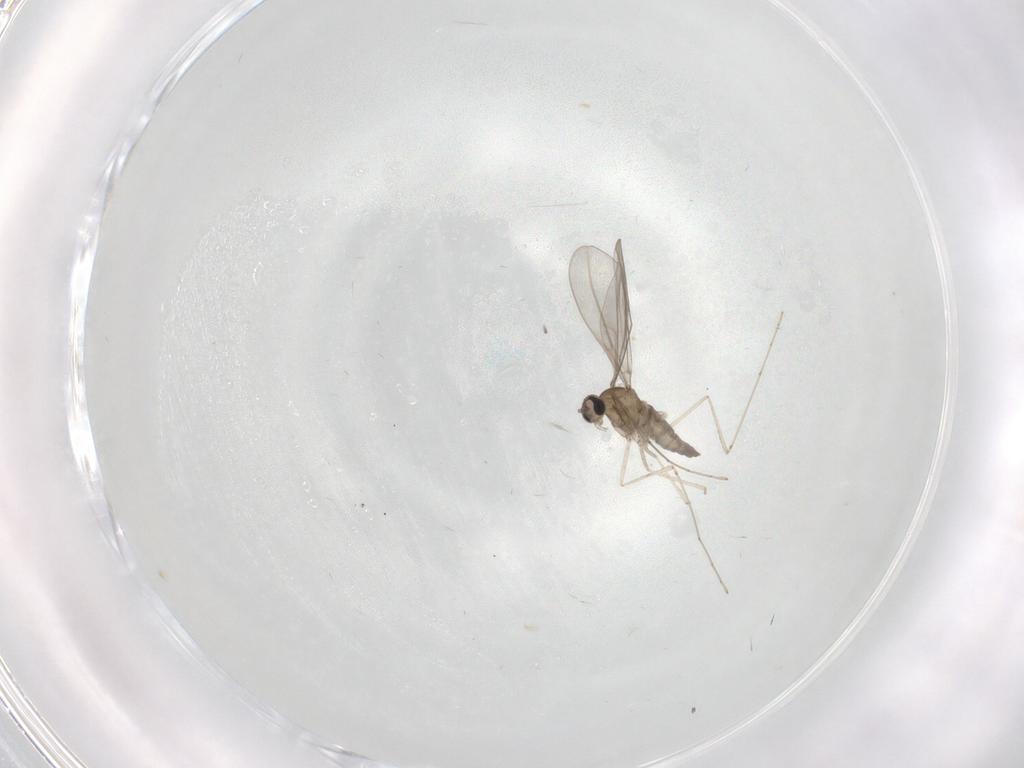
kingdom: Animalia
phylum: Arthropoda
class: Insecta
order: Diptera
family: Cecidomyiidae
